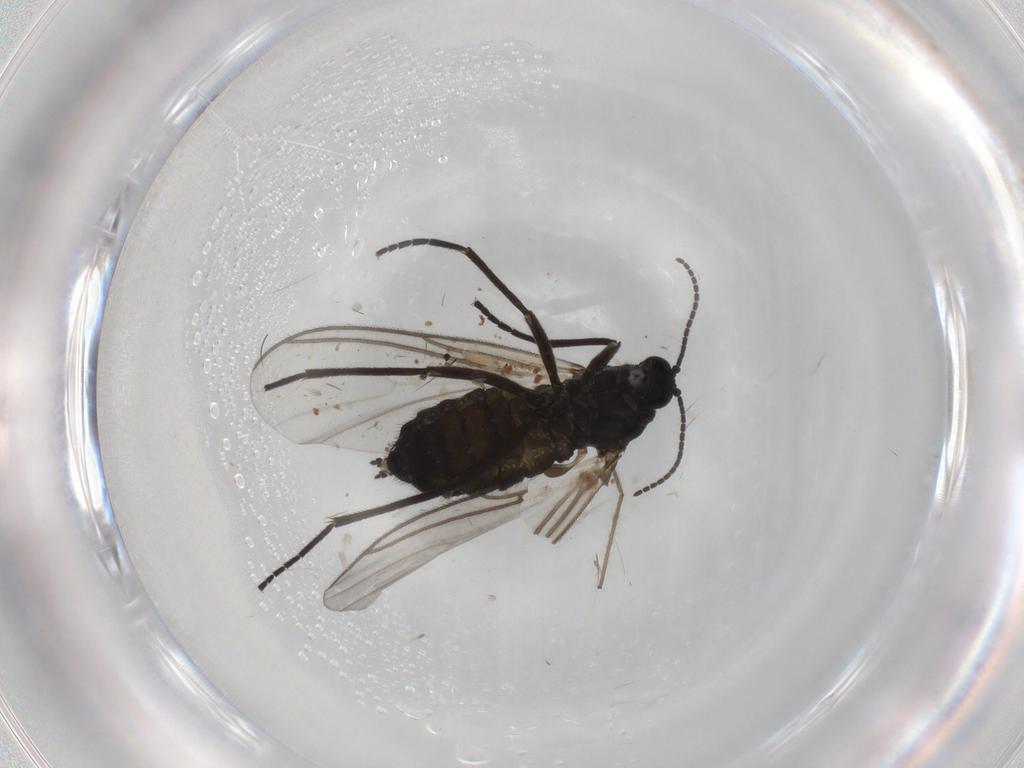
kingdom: Animalia
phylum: Arthropoda
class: Insecta
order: Diptera
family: Sciaridae
